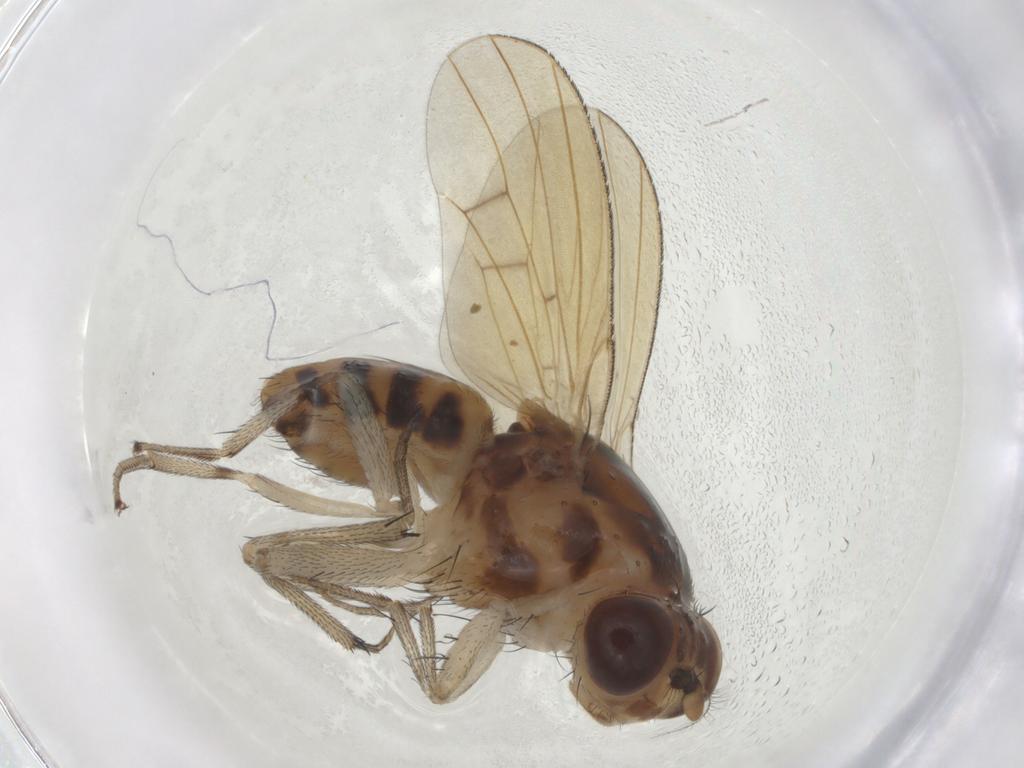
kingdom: Animalia
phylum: Arthropoda
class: Insecta
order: Diptera
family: Lauxaniidae
